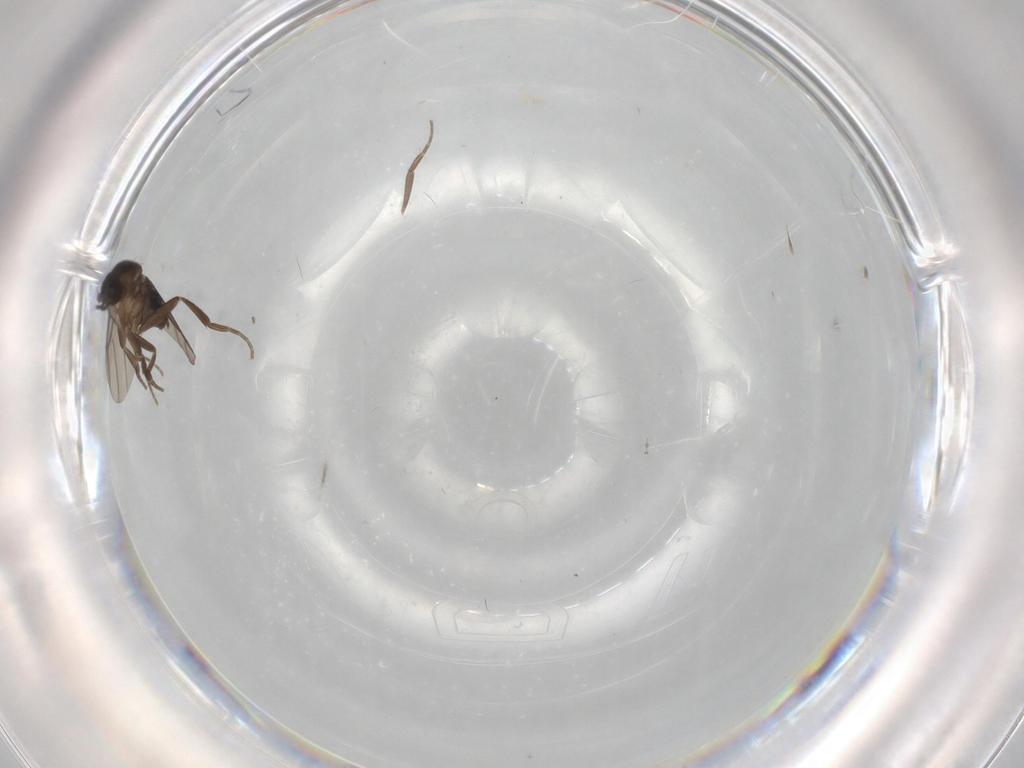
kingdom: Animalia
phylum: Arthropoda
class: Insecta
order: Diptera
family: Phoridae
